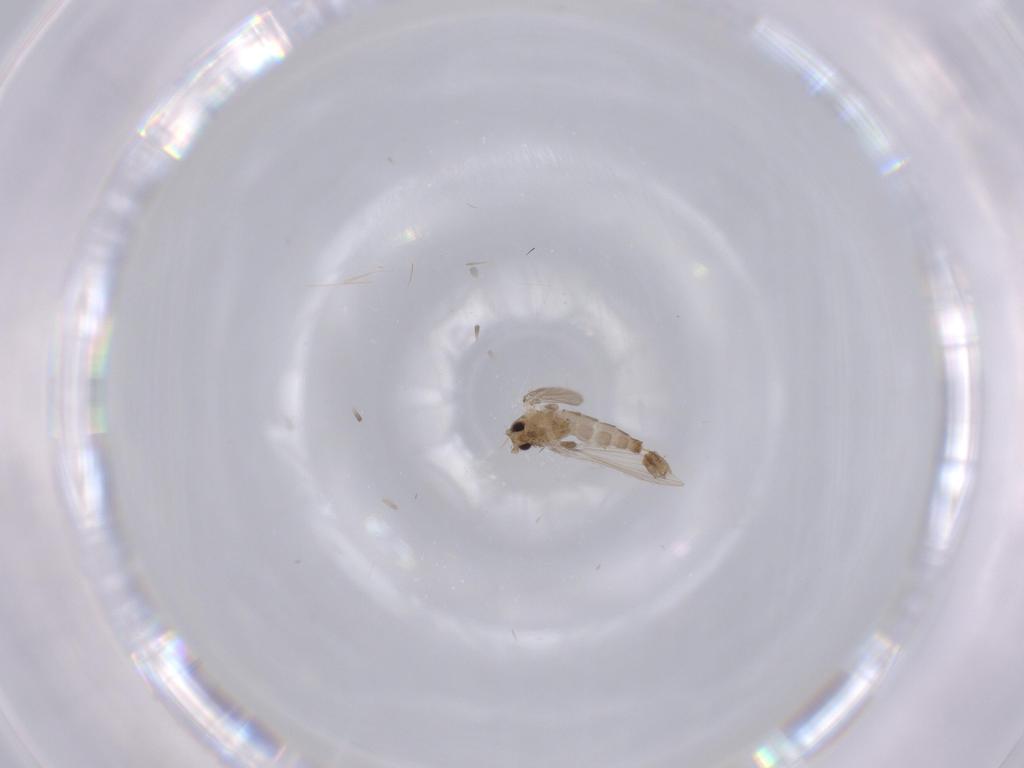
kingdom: Animalia
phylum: Arthropoda
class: Insecta
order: Diptera
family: Psychodidae
